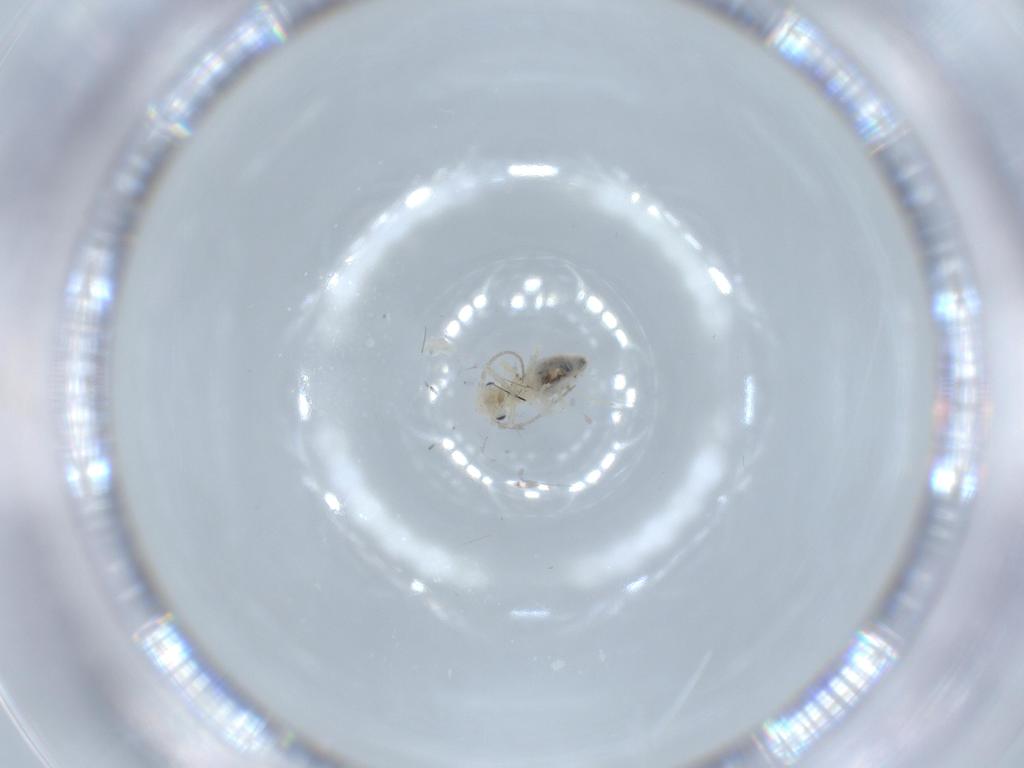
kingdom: Animalia
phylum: Arthropoda
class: Insecta
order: Psocodea
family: Caeciliusidae
